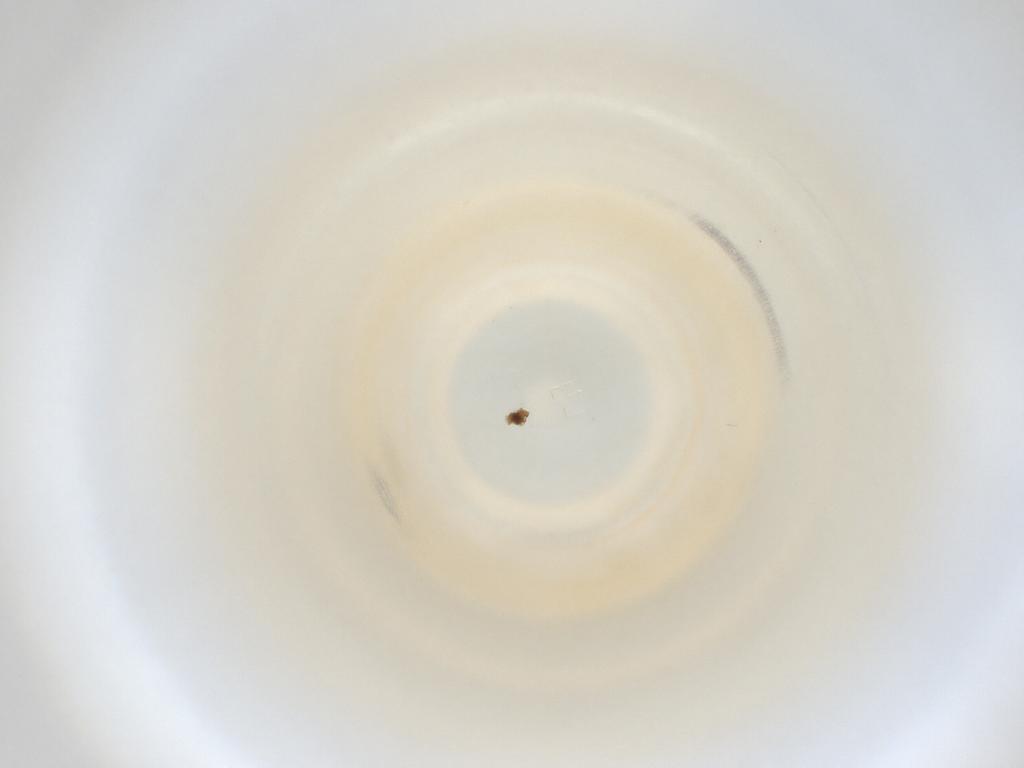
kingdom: Animalia
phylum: Arthropoda
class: Insecta
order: Diptera
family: Cecidomyiidae
